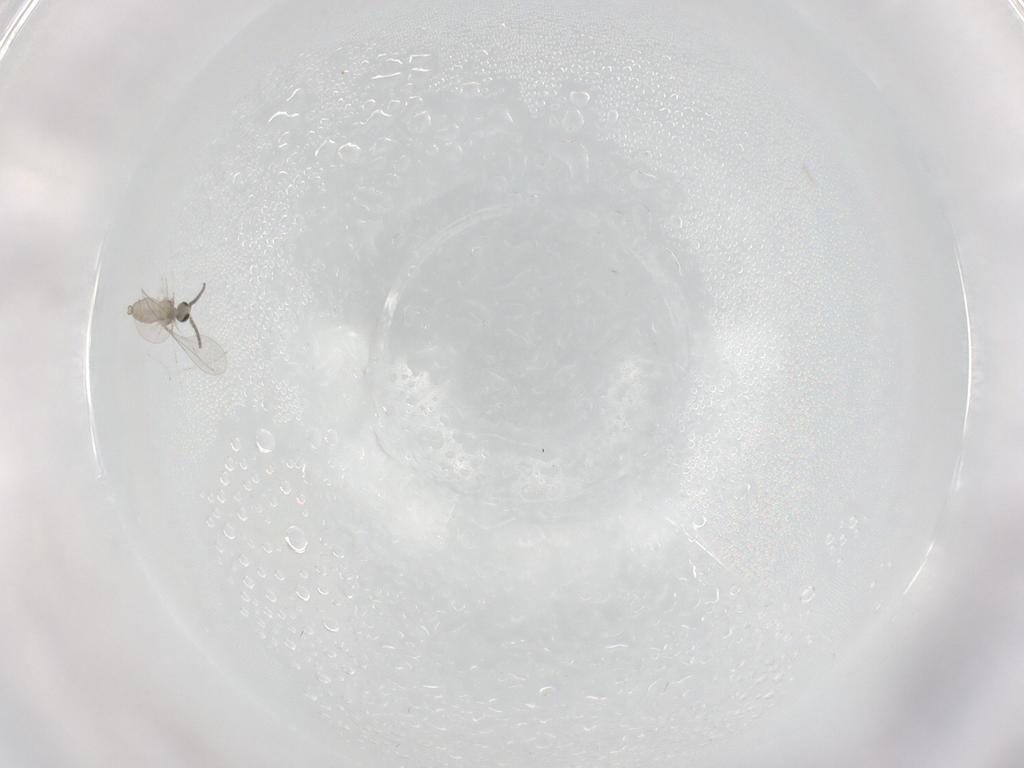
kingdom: Animalia
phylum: Arthropoda
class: Insecta
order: Diptera
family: Cecidomyiidae
